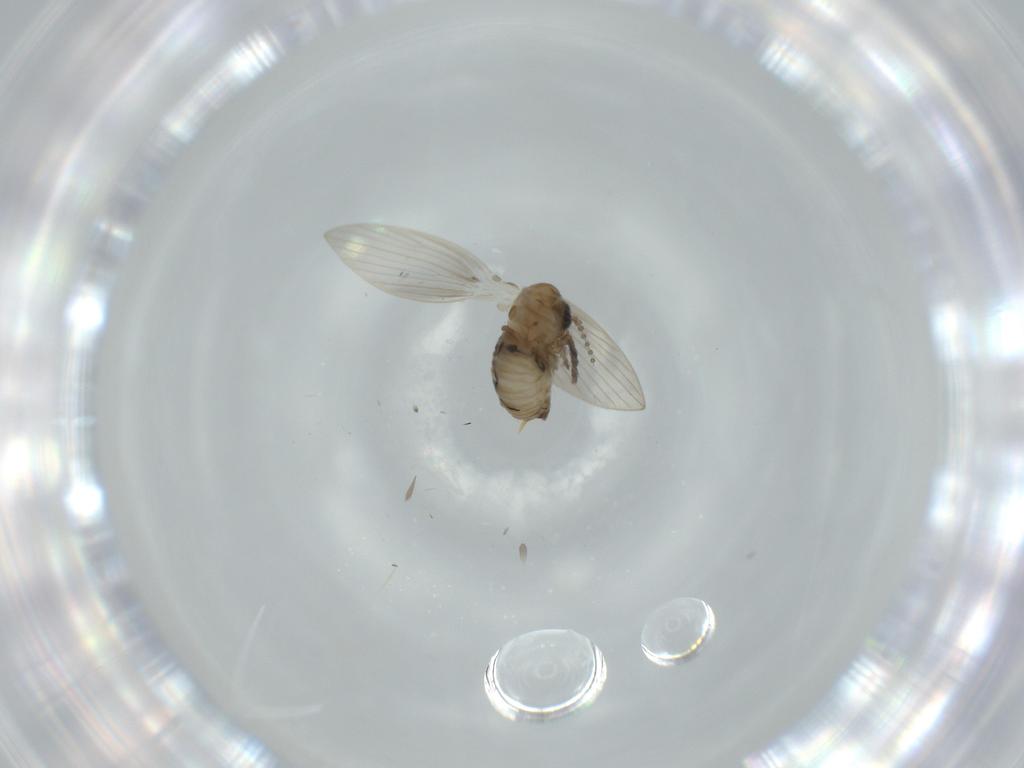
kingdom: Animalia
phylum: Arthropoda
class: Insecta
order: Diptera
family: Psychodidae
